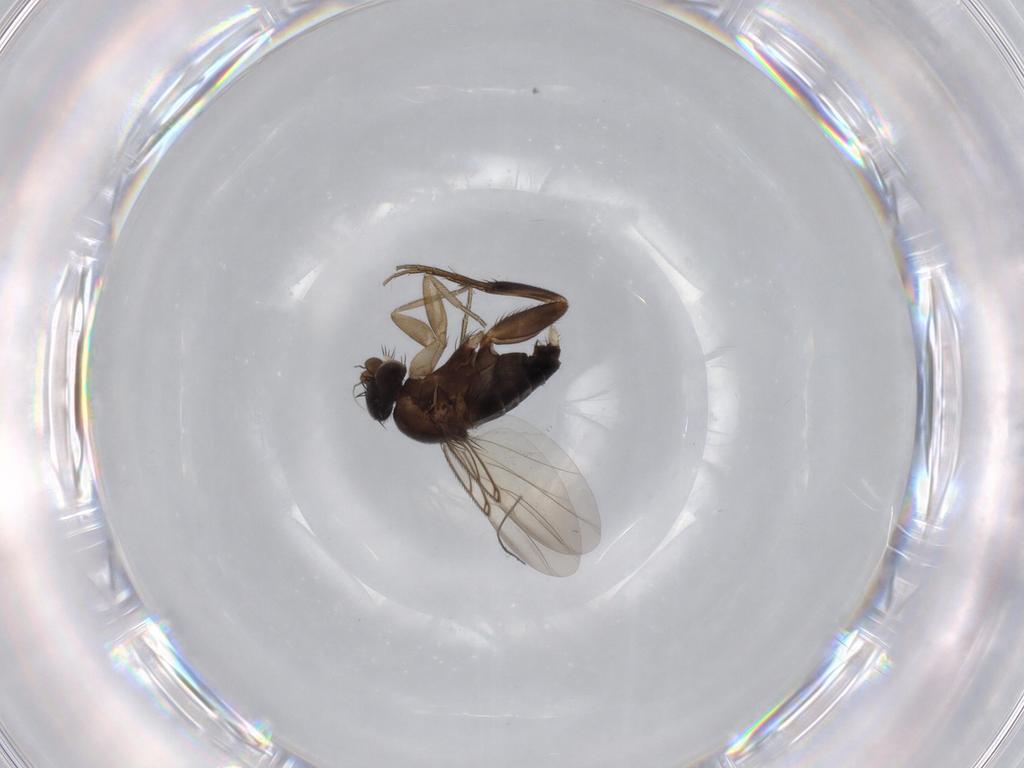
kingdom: Animalia
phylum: Arthropoda
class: Insecta
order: Diptera
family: Phoridae
